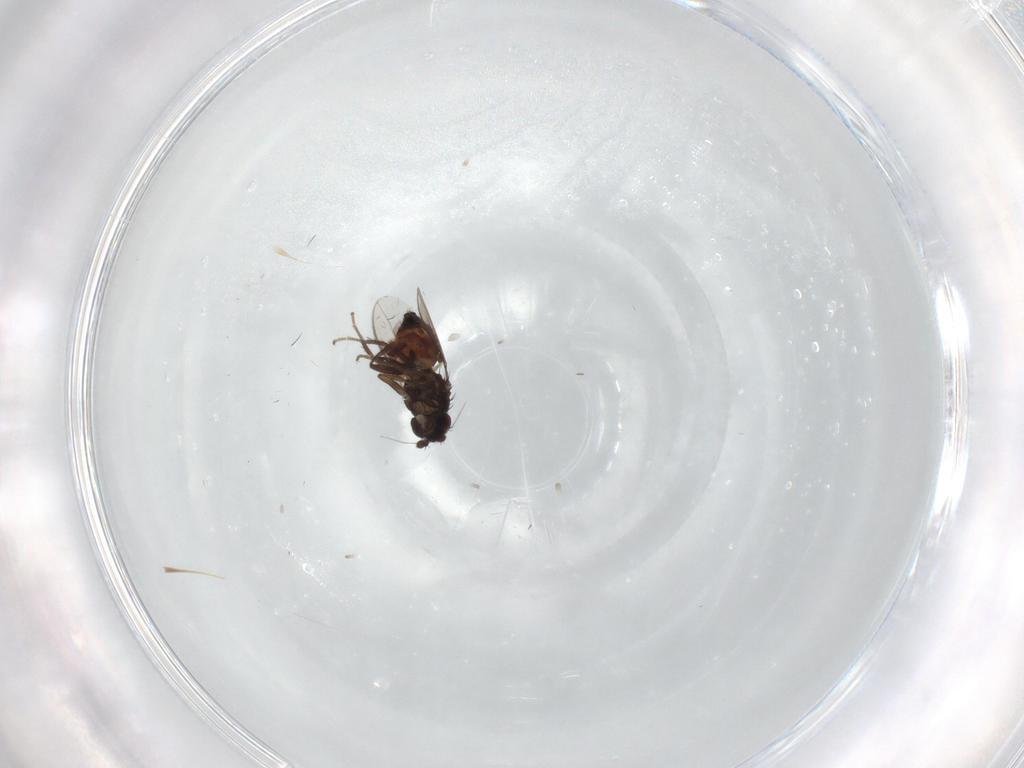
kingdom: Animalia
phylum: Arthropoda
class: Insecta
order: Diptera
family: Sphaeroceridae
